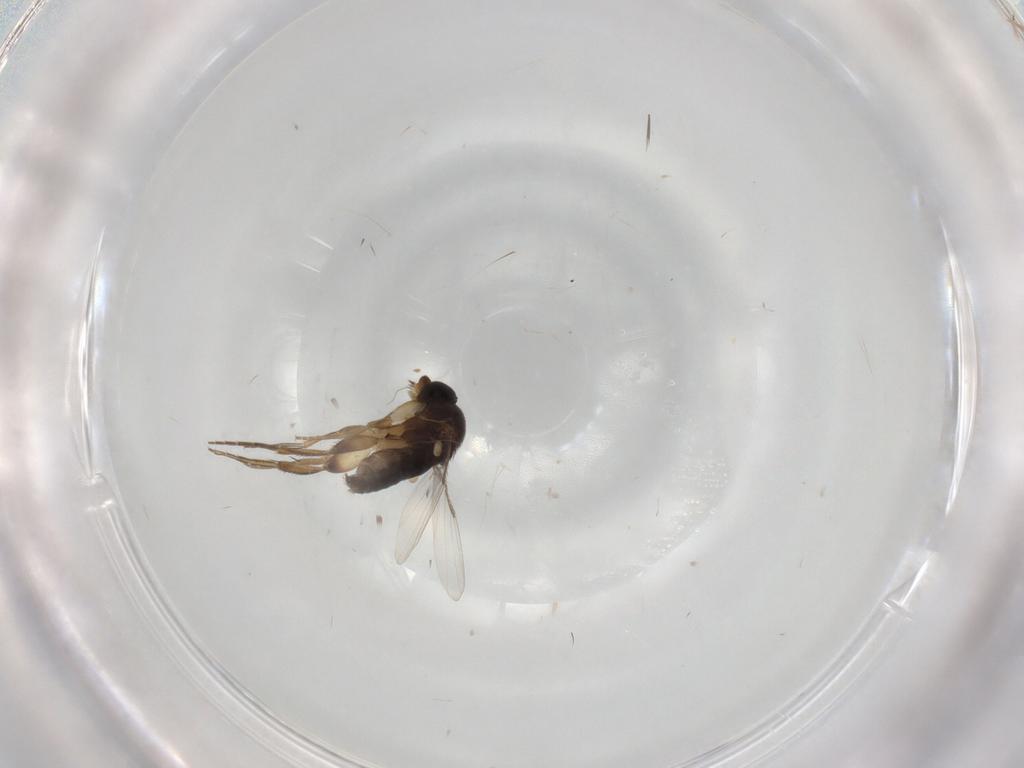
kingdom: Animalia
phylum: Arthropoda
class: Insecta
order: Diptera
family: Phoridae
